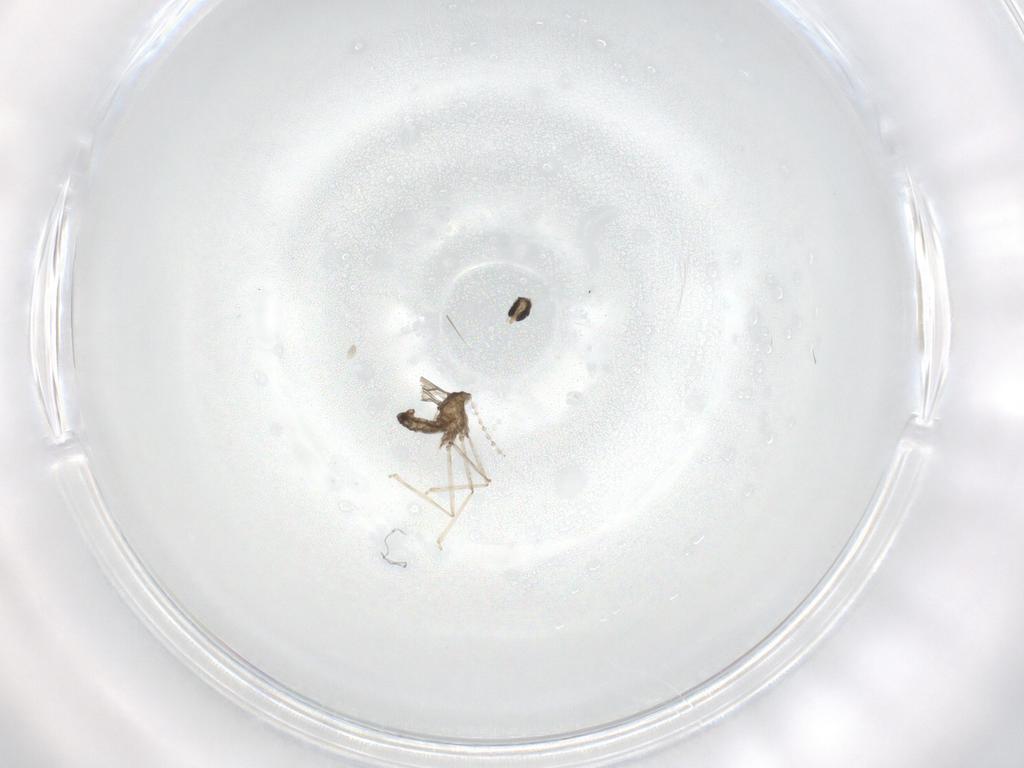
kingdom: Animalia
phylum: Arthropoda
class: Insecta
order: Diptera
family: Cecidomyiidae
